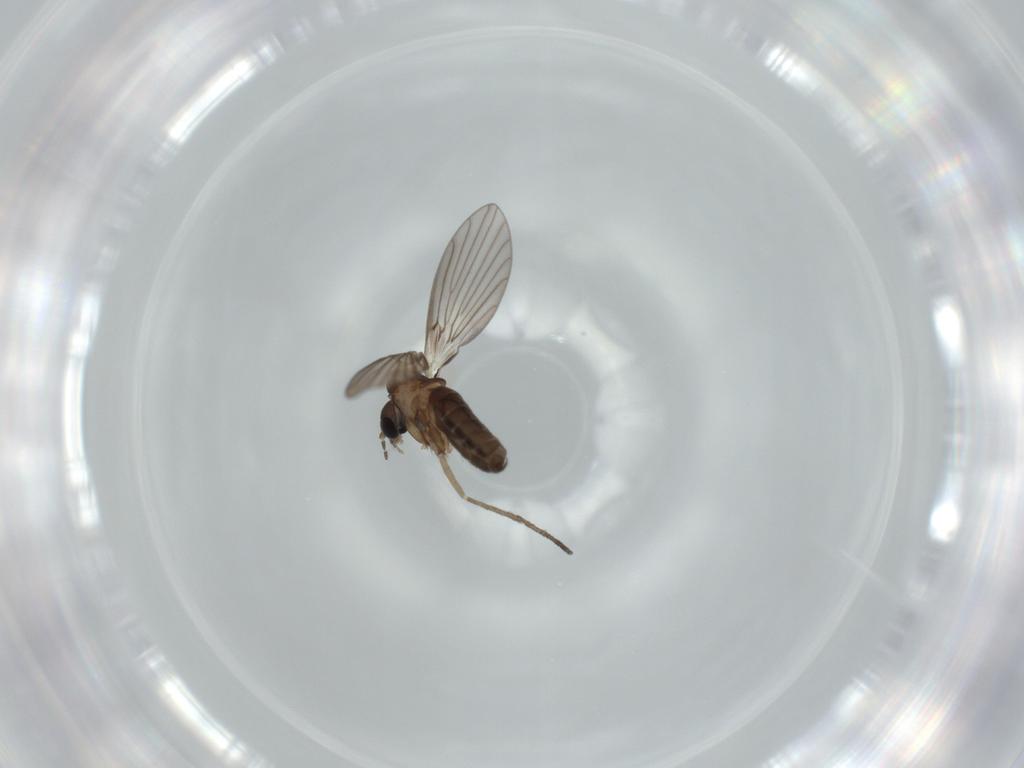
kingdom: Animalia
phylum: Arthropoda
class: Insecta
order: Diptera
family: Psychodidae
